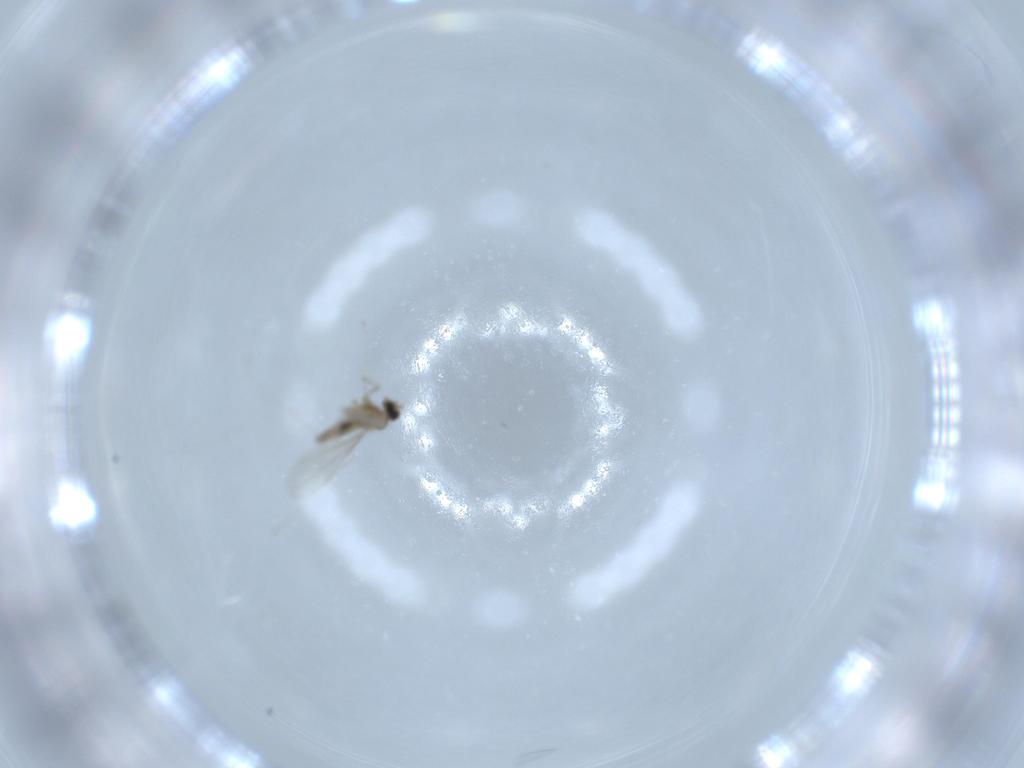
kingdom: Animalia
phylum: Arthropoda
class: Insecta
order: Diptera
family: Cecidomyiidae
